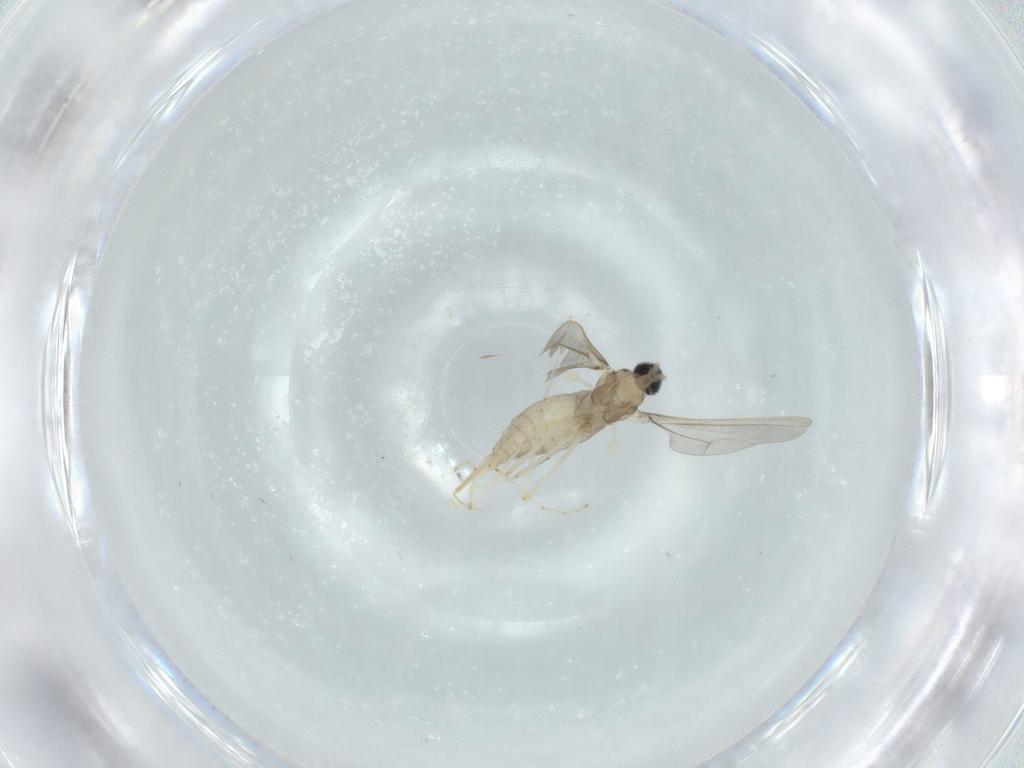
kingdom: Animalia
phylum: Arthropoda
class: Insecta
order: Diptera
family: Cecidomyiidae
